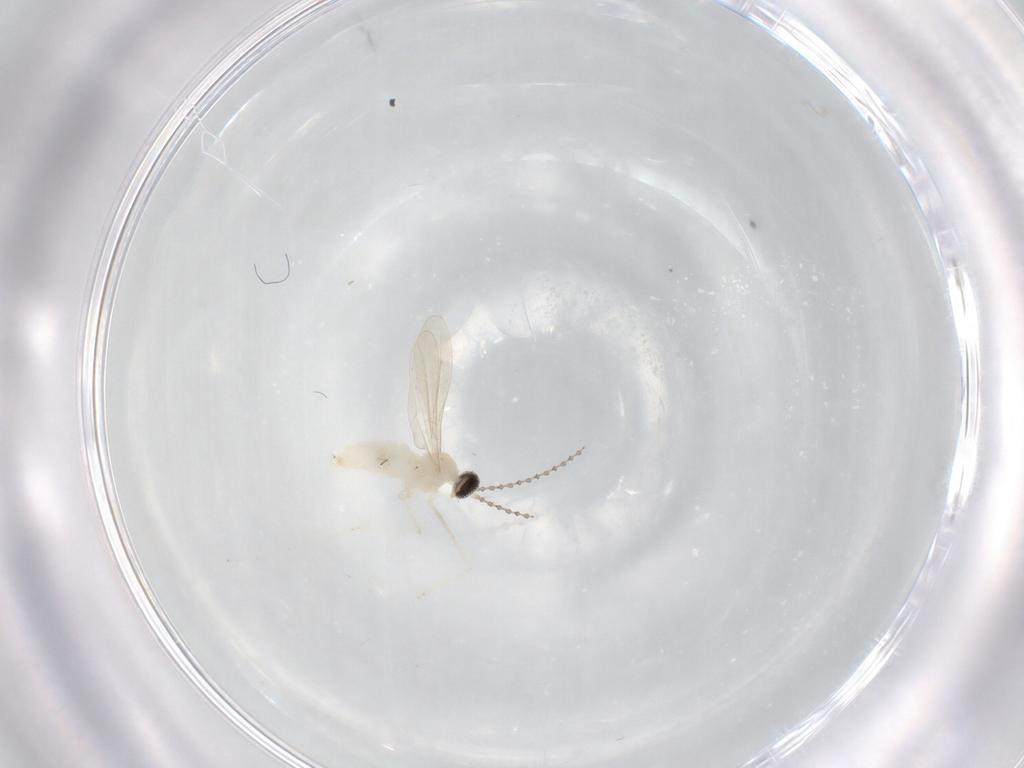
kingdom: Animalia
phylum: Arthropoda
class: Insecta
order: Diptera
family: Cecidomyiidae
